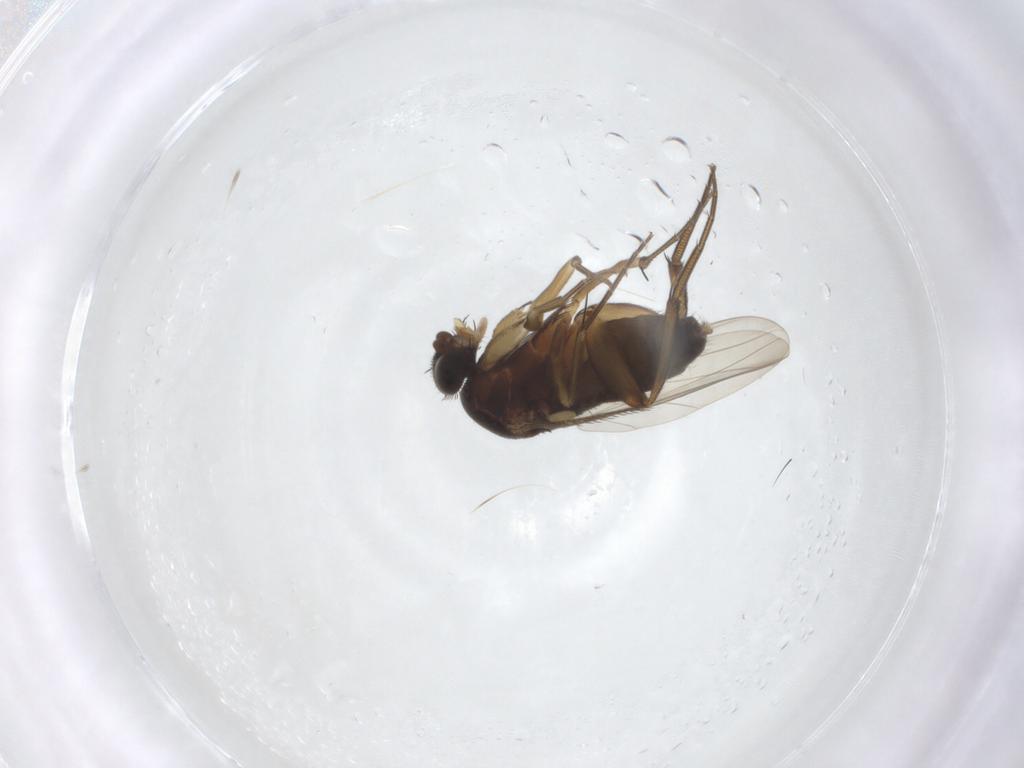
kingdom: Animalia
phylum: Arthropoda
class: Insecta
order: Diptera
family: Phoridae
